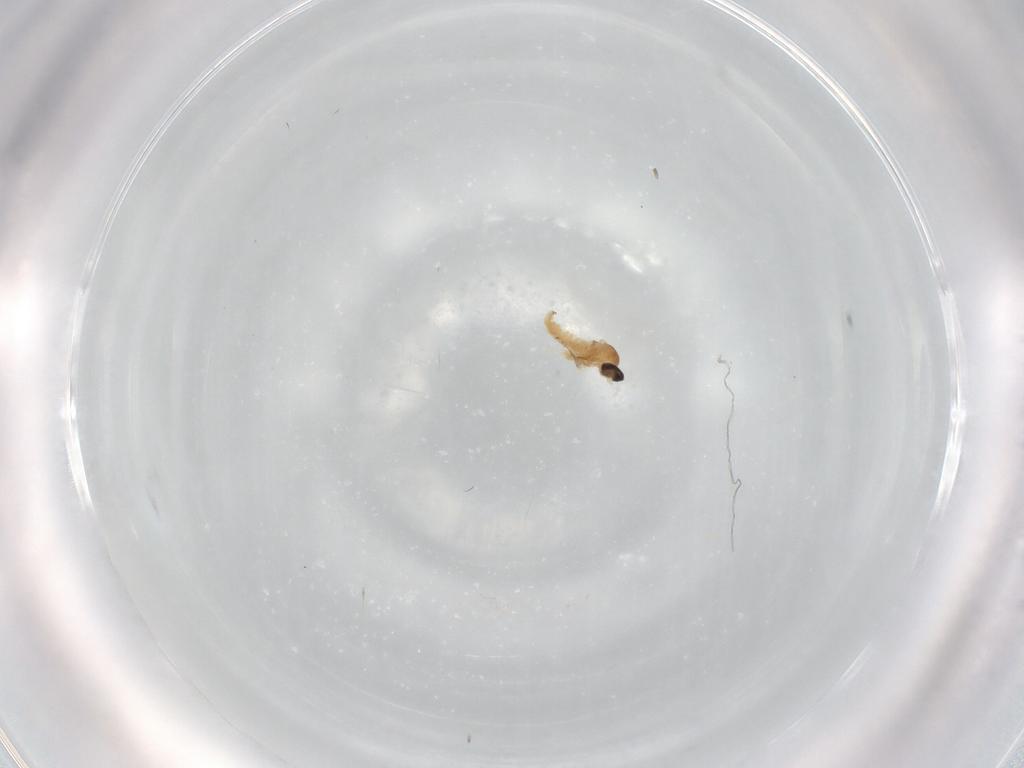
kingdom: Animalia
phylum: Arthropoda
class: Insecta
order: Diptera
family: Cecidomyiidae
